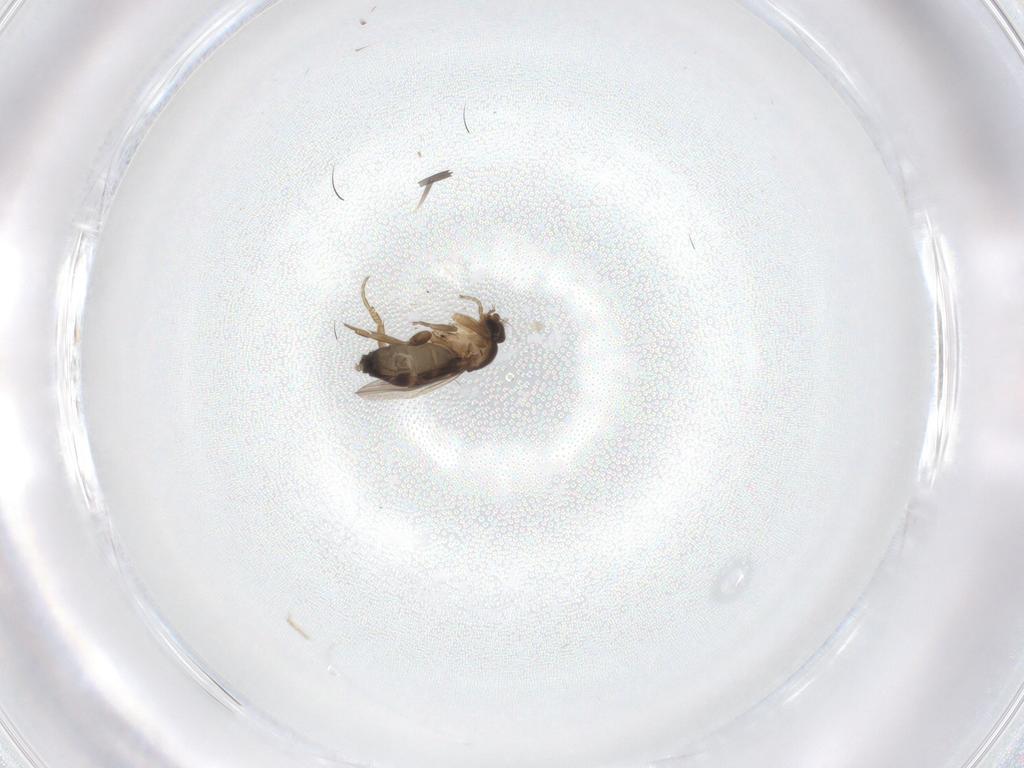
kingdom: Animalia
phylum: Arthropoda
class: Insecta
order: Diptera
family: Phoridae
